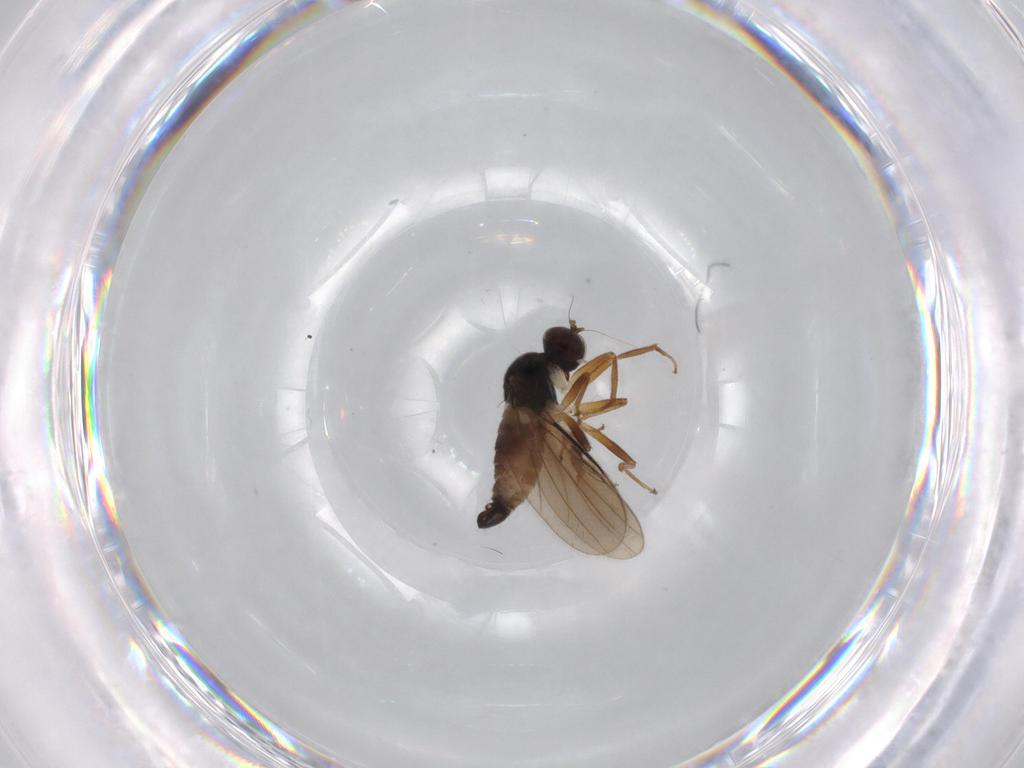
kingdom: Animalia
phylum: Arthropoda
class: Insecta
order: Diptera
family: Hybotidae
